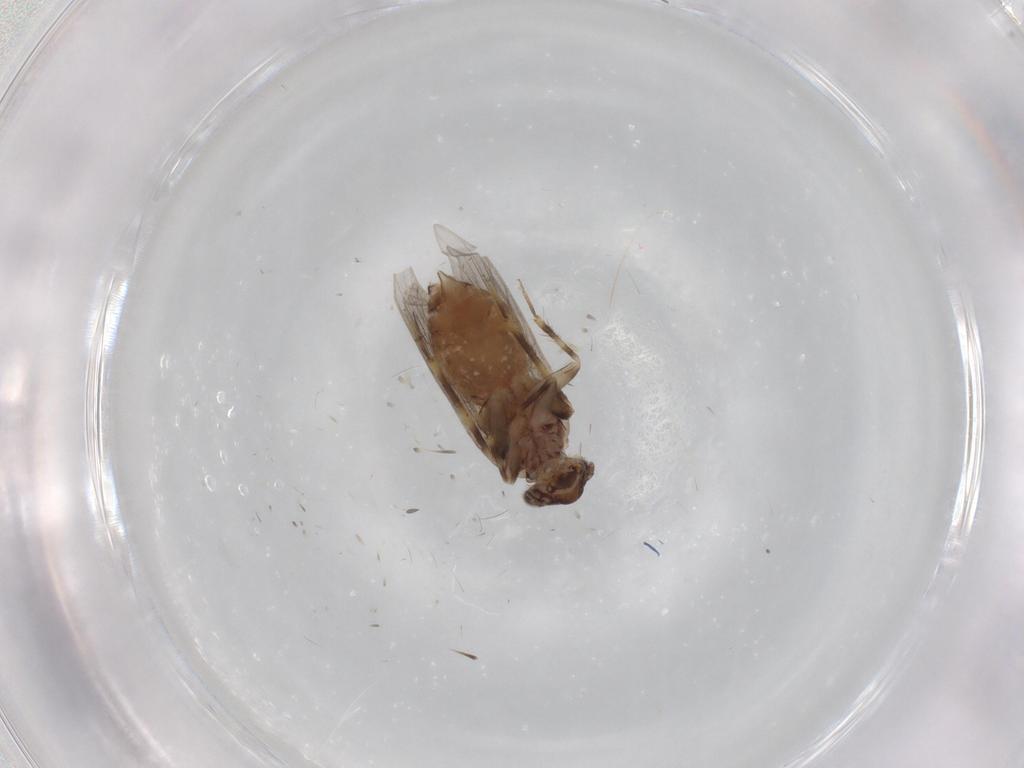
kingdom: Animalia
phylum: Arthropoda
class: Insecta
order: Psocodea
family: Lepidopsocidae
